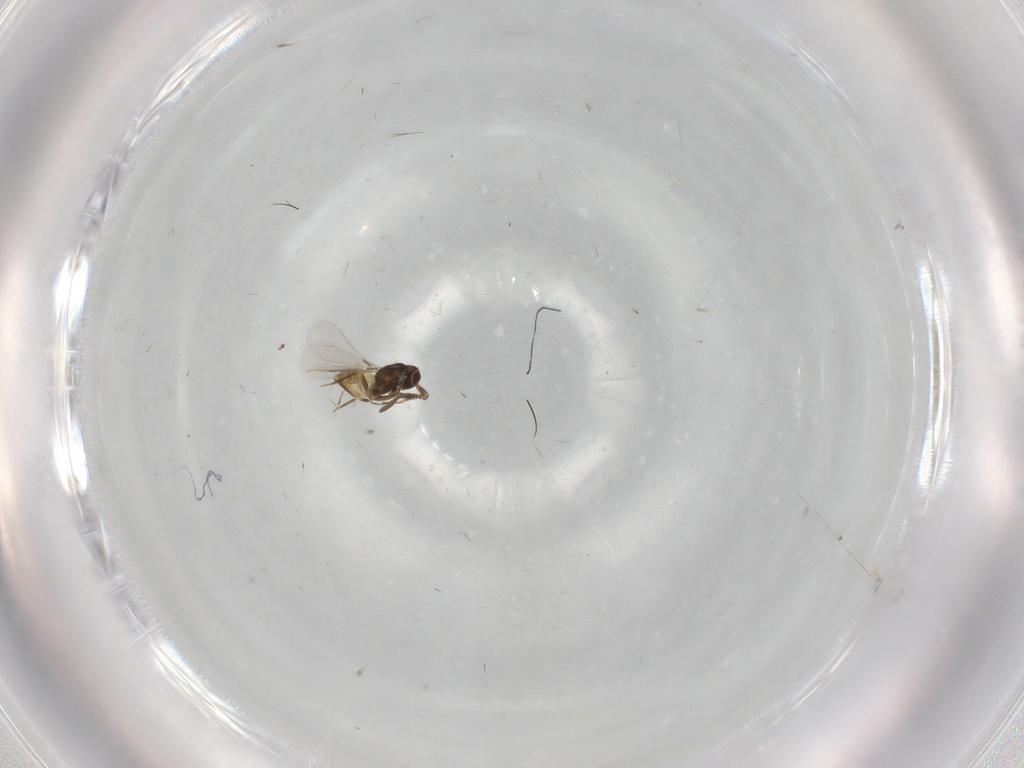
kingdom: Animalia
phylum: Arthropoda
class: Insecta
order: Hymenoptera
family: Mymaridae
